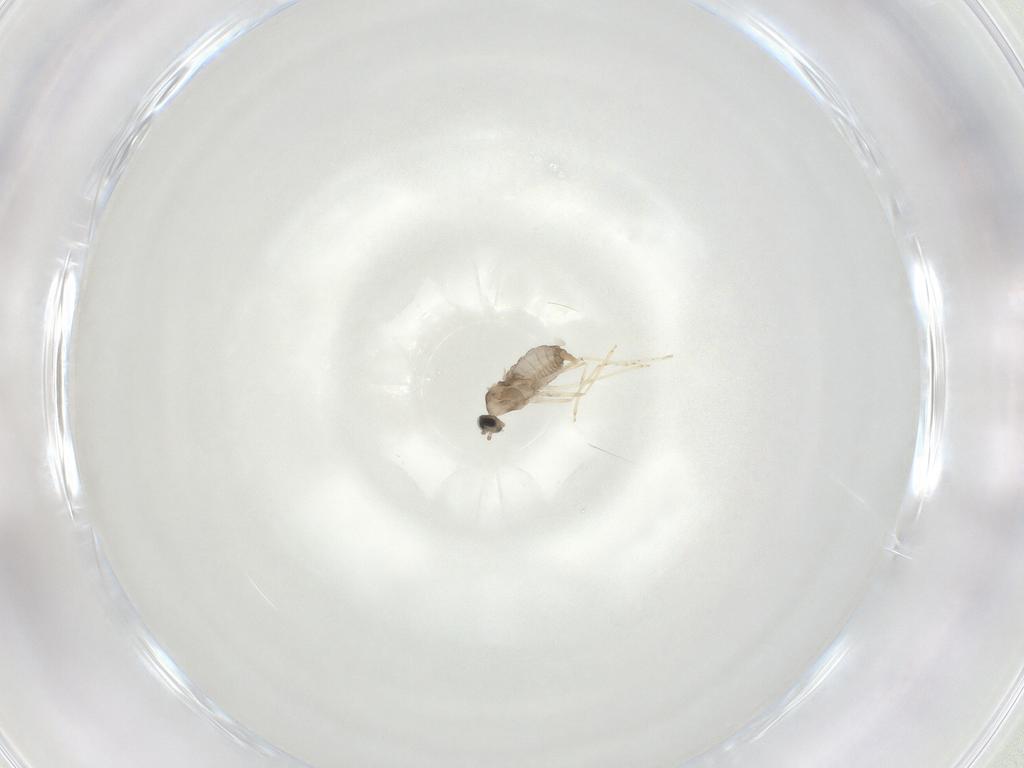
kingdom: Animalia
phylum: Arthropoda
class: Insecta
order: Diptera
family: Cecidomyiidae
